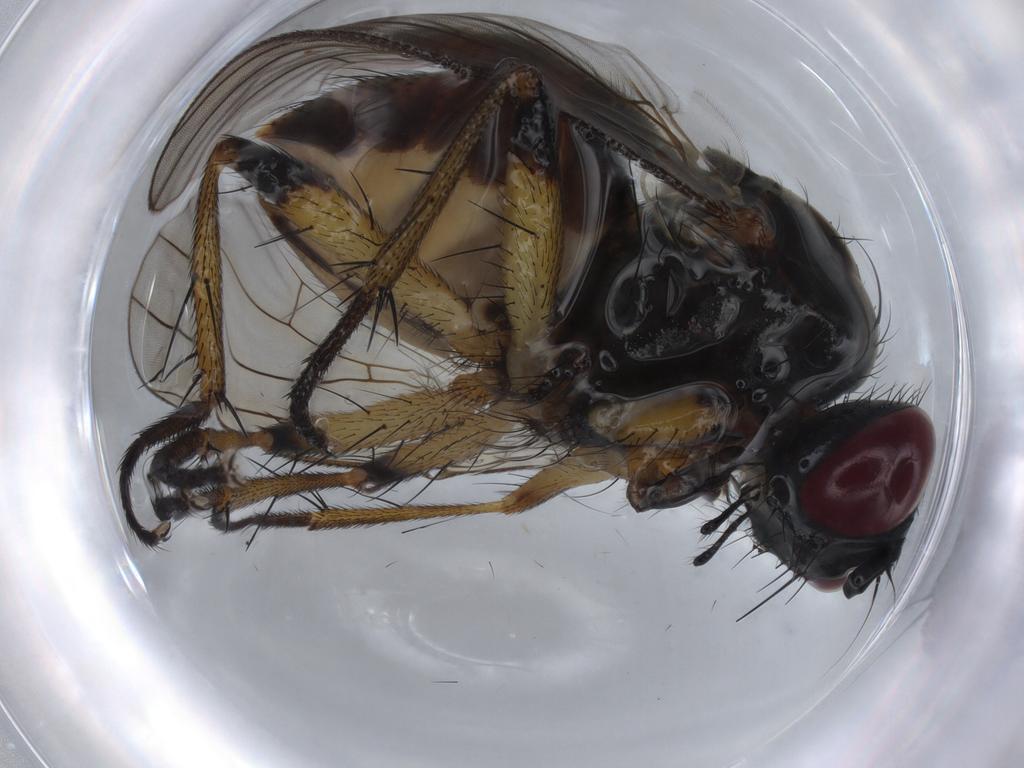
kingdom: Animalia
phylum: Arthropoda
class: Insecta
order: Diptera
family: Muscidae
